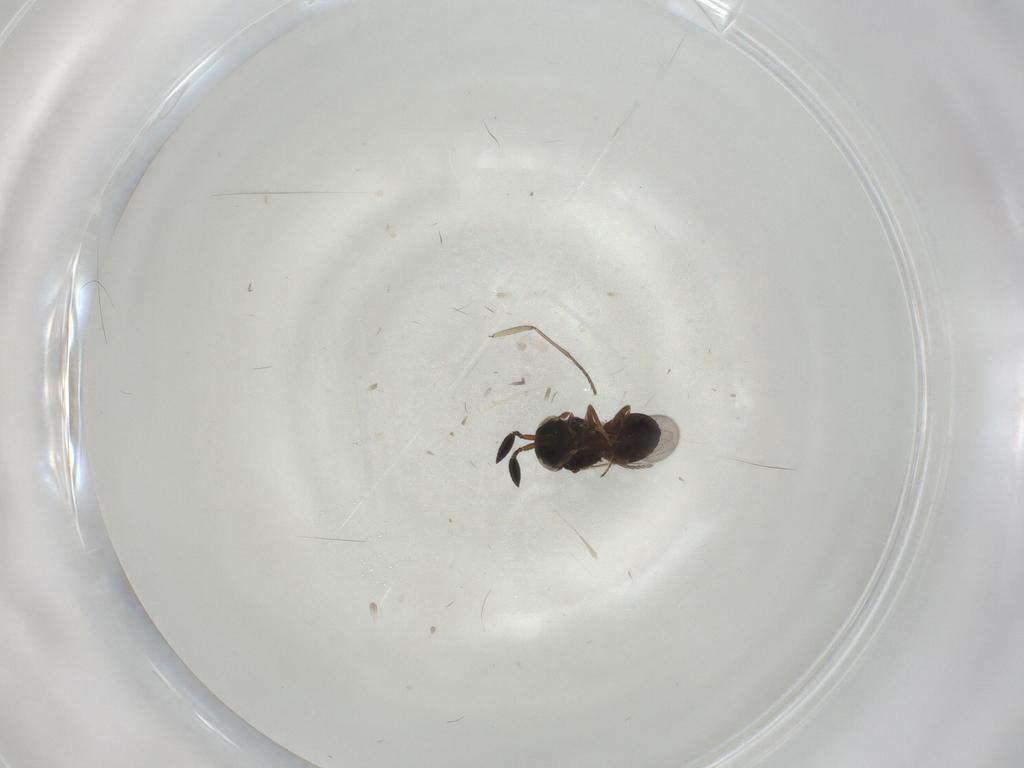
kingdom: Animalia
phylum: Arthropoda
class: Insecta
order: Hymenoptera
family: Scelionidae
